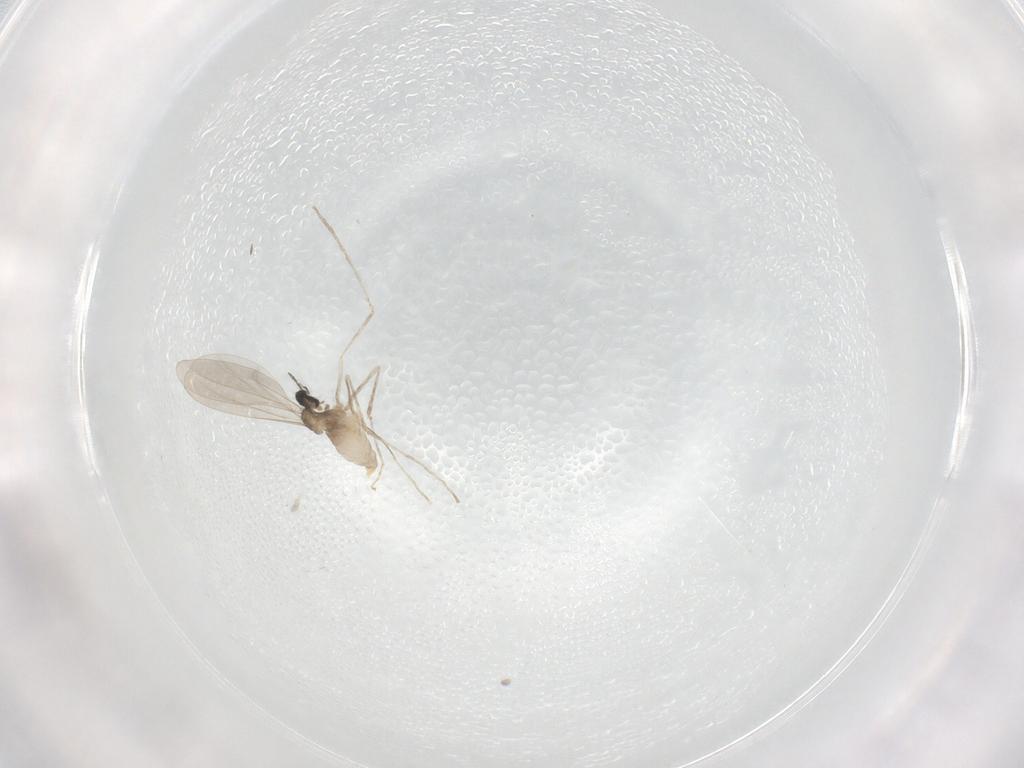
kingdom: Animalia
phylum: Arthropoda
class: Insecta
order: Diptera
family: Cecidomyiidae
